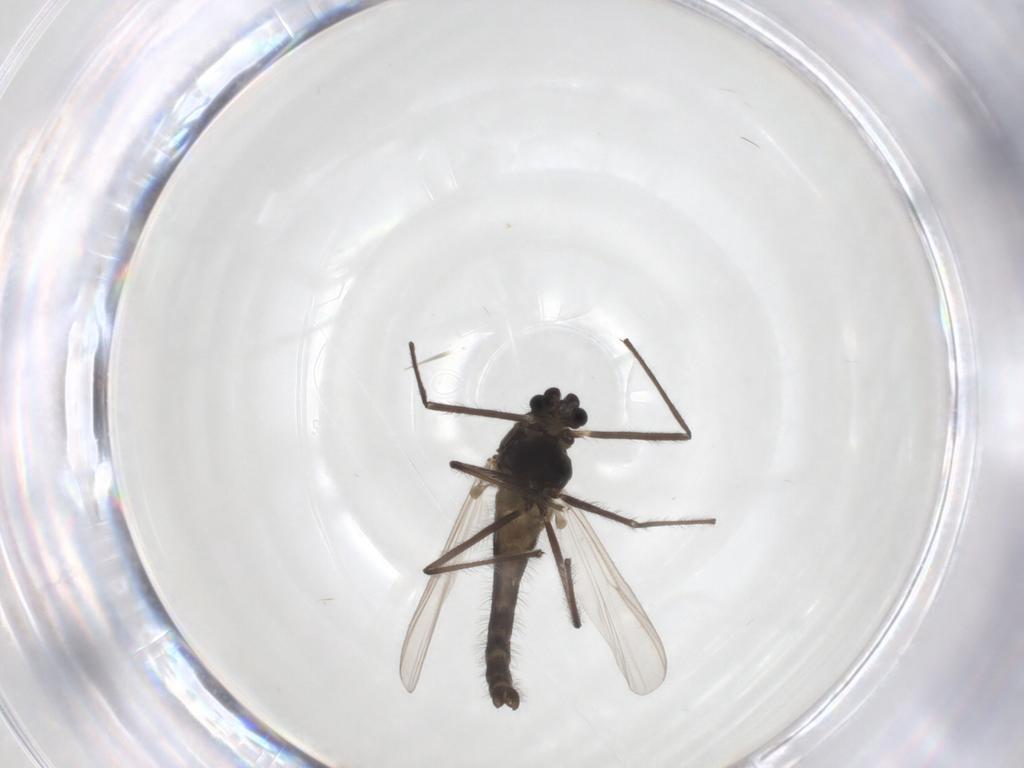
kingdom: Animalia
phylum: Arthropoda
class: Insecta
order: Diptera
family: Chironomidae
